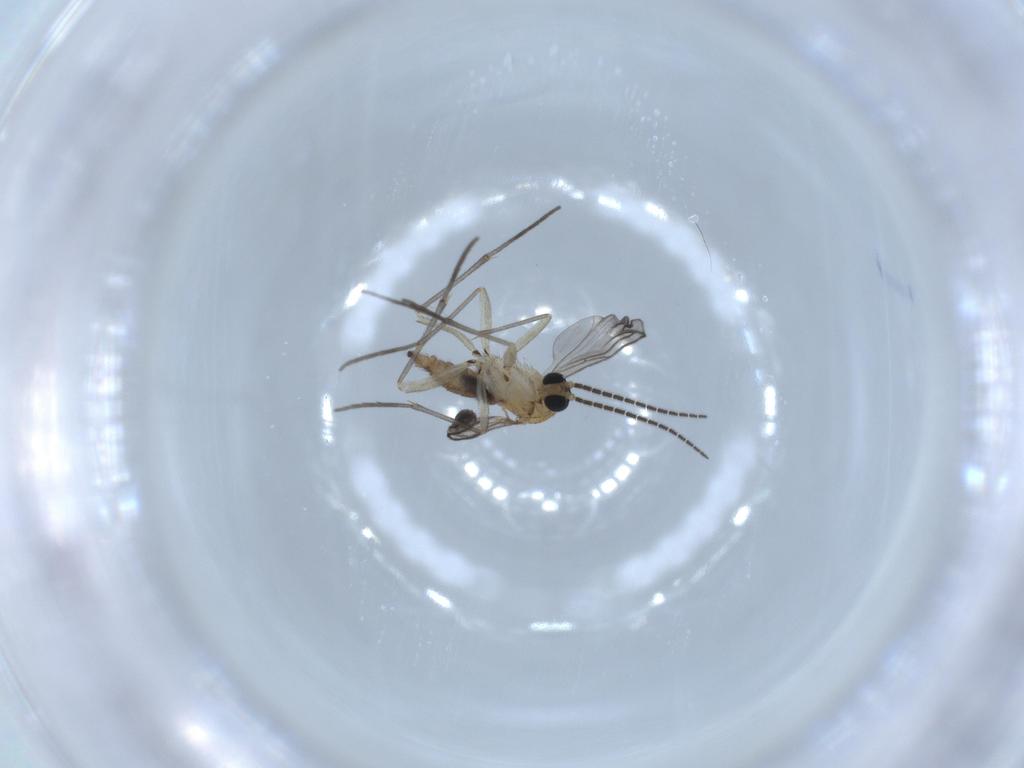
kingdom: Animalia
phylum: Arthropoda
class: Insecta
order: Diptera
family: Sciaridae
